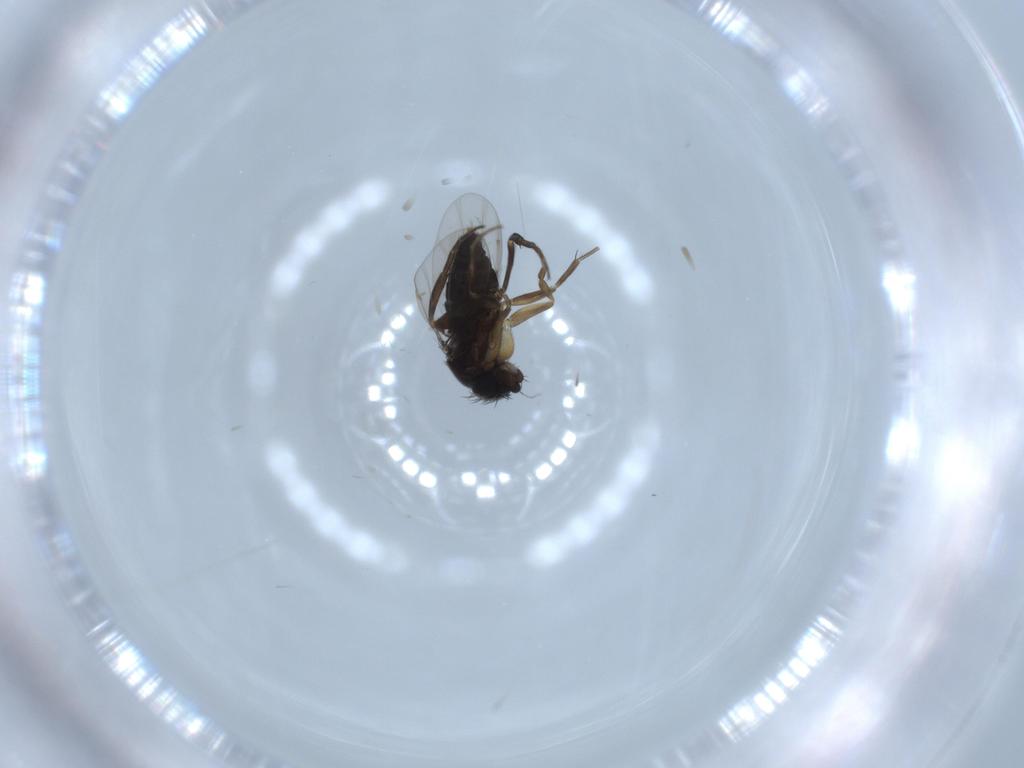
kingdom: Animalia
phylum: Arthropoda
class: Insecta
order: Diptera
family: Phoridae
